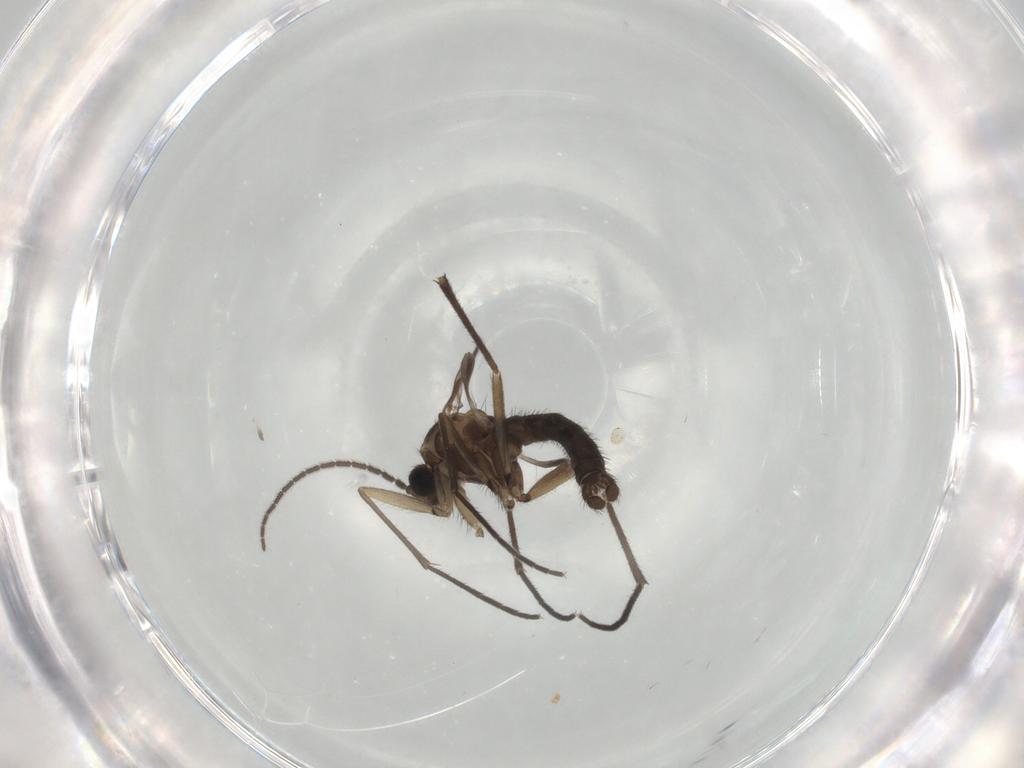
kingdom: Animalia
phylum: Arthropoda
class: Insecta
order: Diptera
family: Sciaridae
